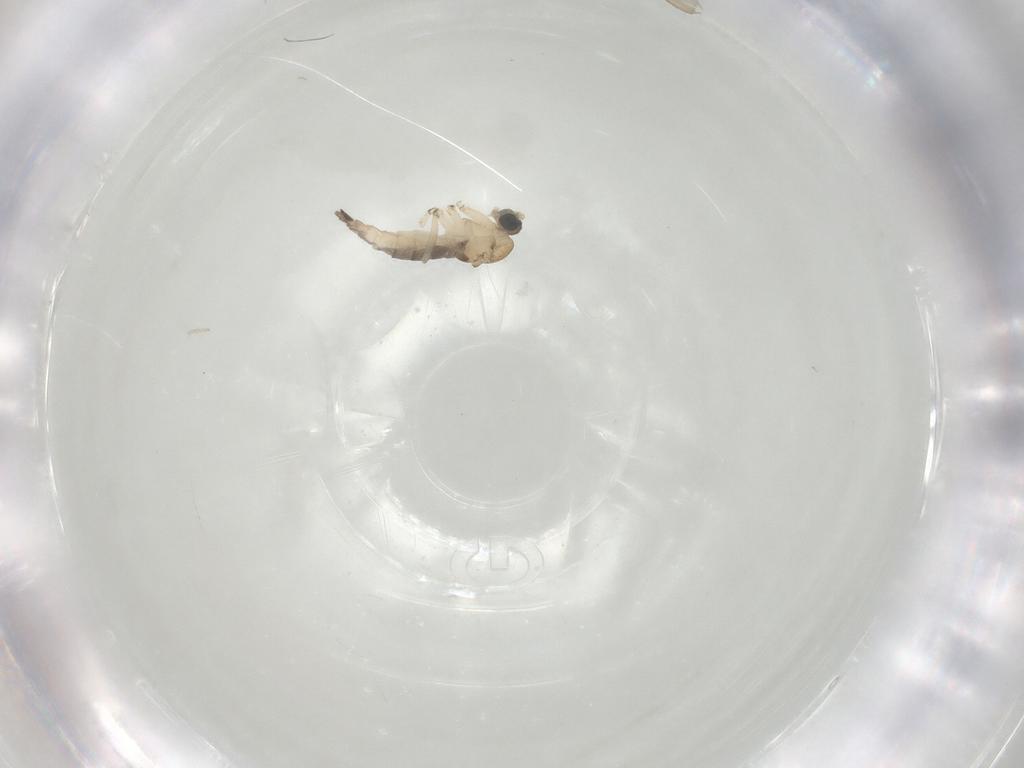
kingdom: Animalia
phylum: Arthropoda
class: Insecta
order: Diptera
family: Sciaridae
